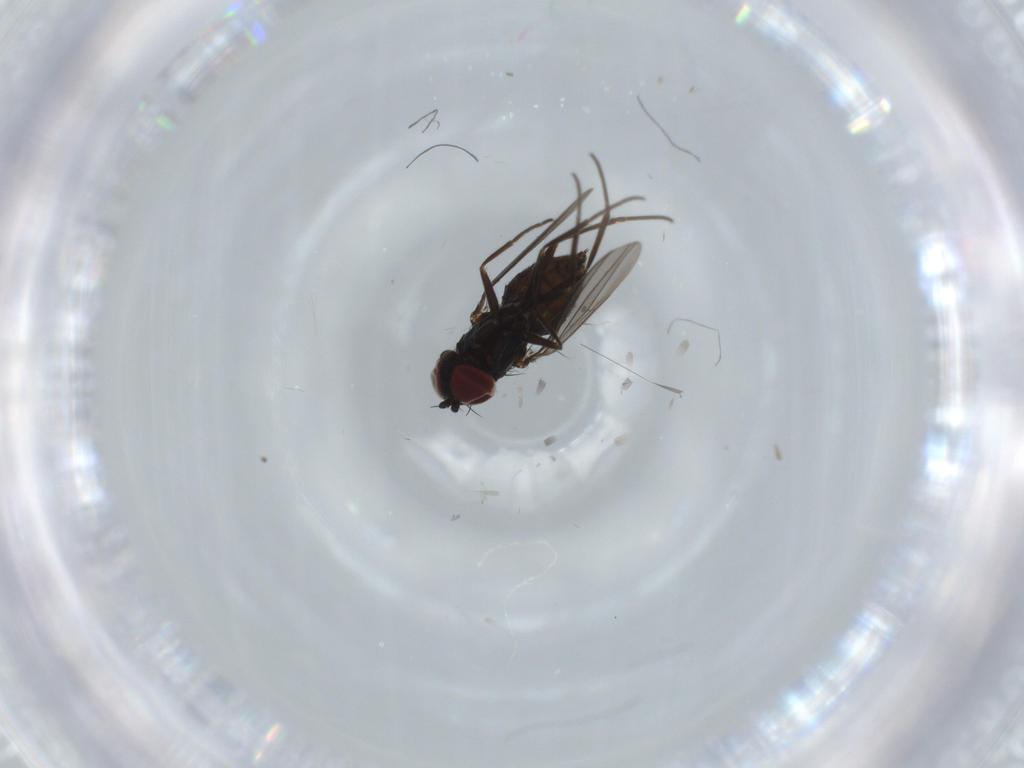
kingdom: Animalia
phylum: Arthropoda
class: Insecta
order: Diptera
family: Dolichopodidae
